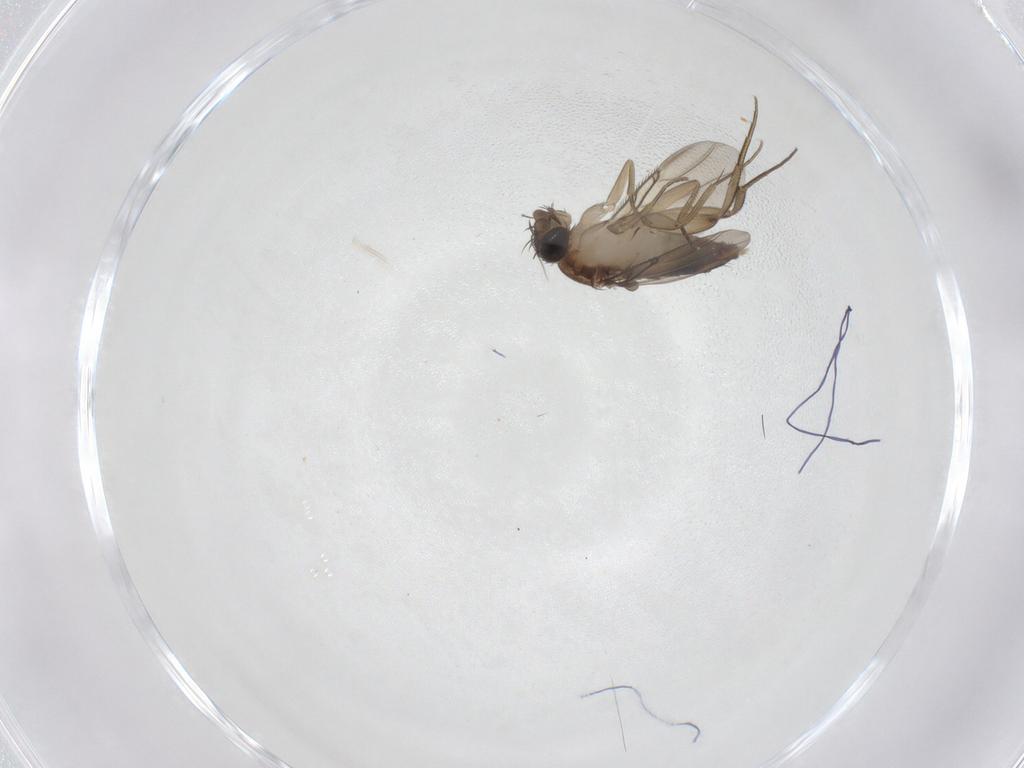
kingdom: Animalia
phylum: Arthropoda
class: Insecta
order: Diptera
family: Phoridae
